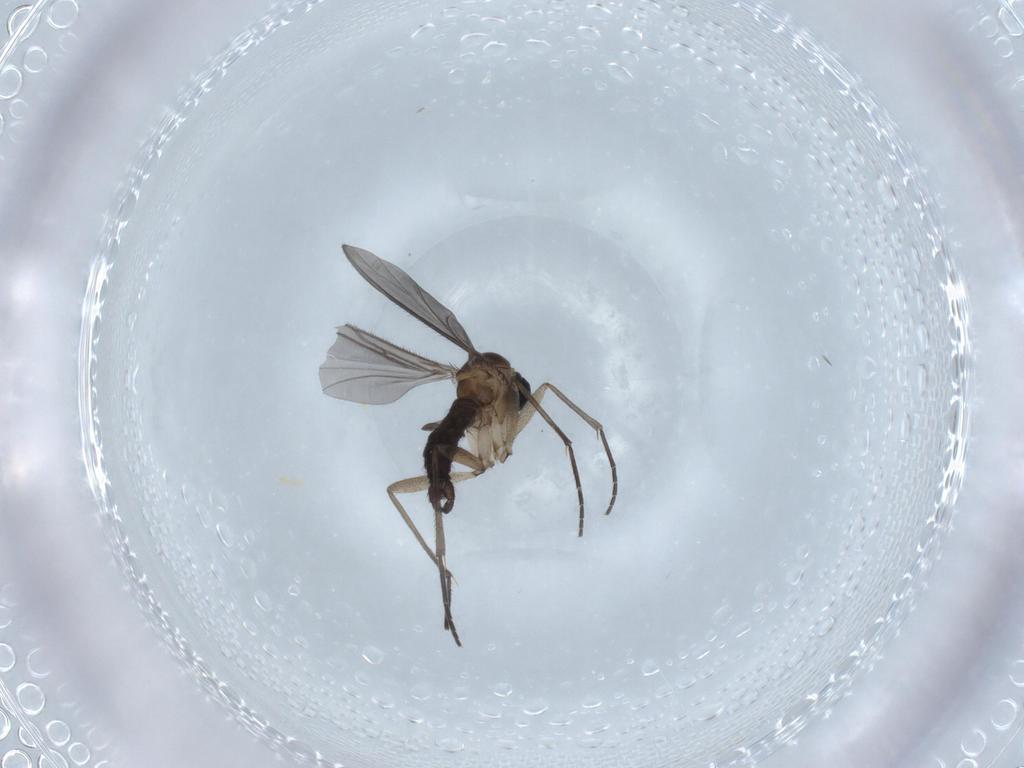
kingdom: Animalia
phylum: Arthropoda
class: Insecta
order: Diptera
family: Sciaridae
